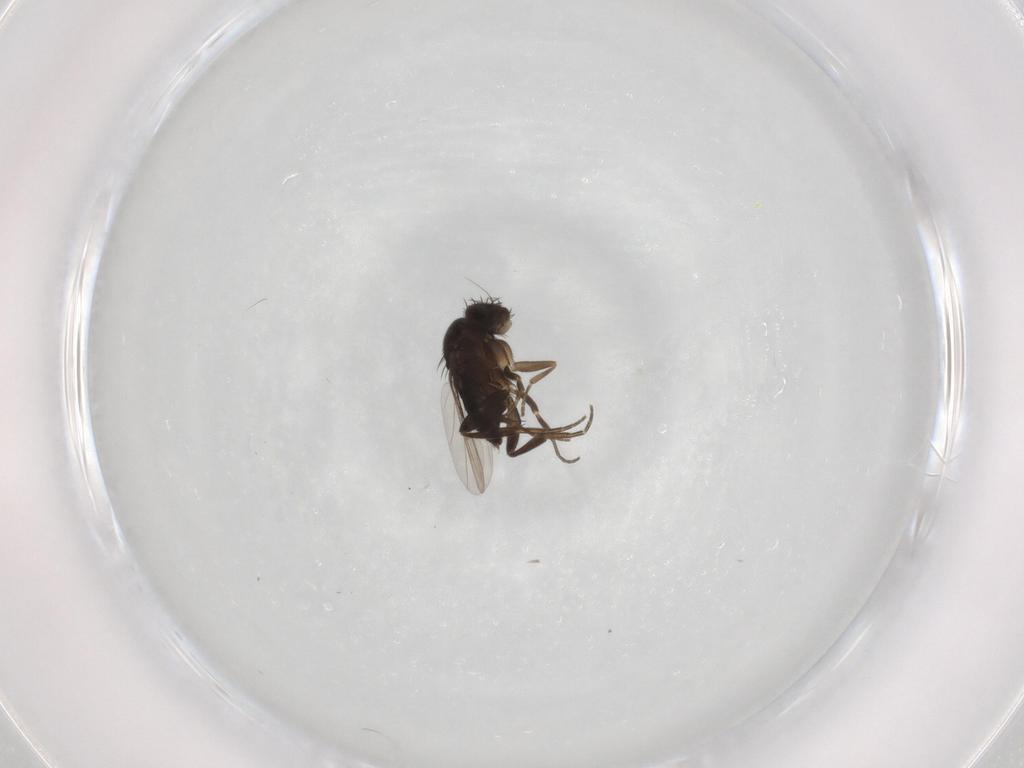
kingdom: Animalia
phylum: Arthropoda
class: Insecta
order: Diptera
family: Phoridae
